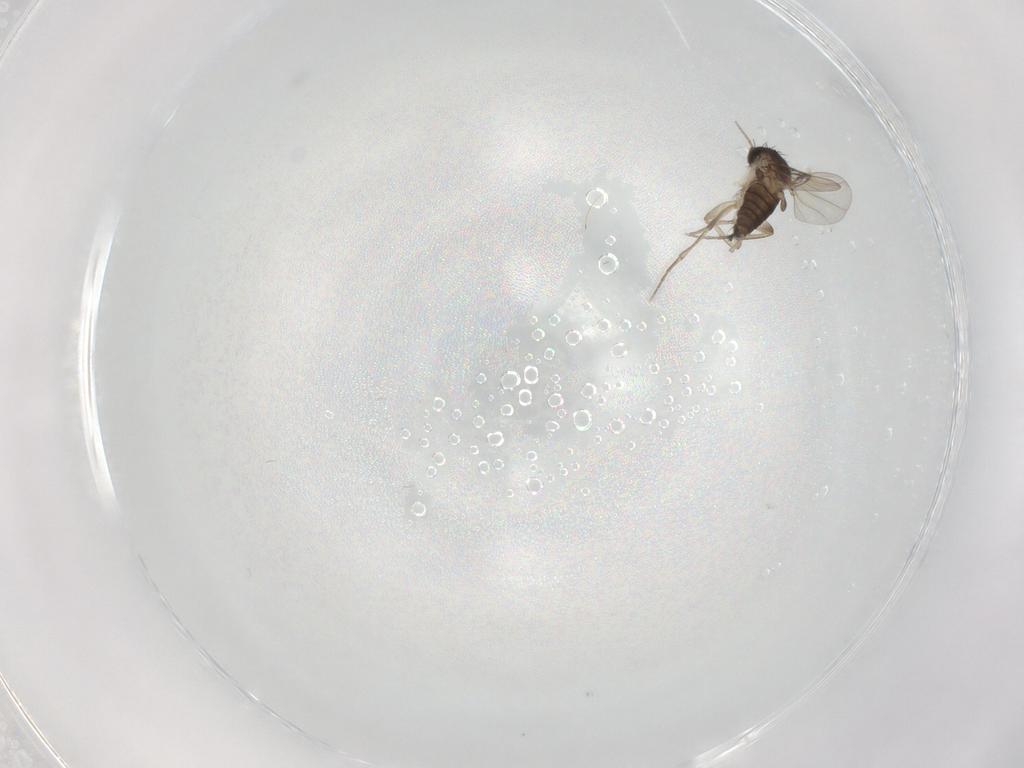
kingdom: Animalia
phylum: Arthropoda
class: Insecta
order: Diptera
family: Phoridae
